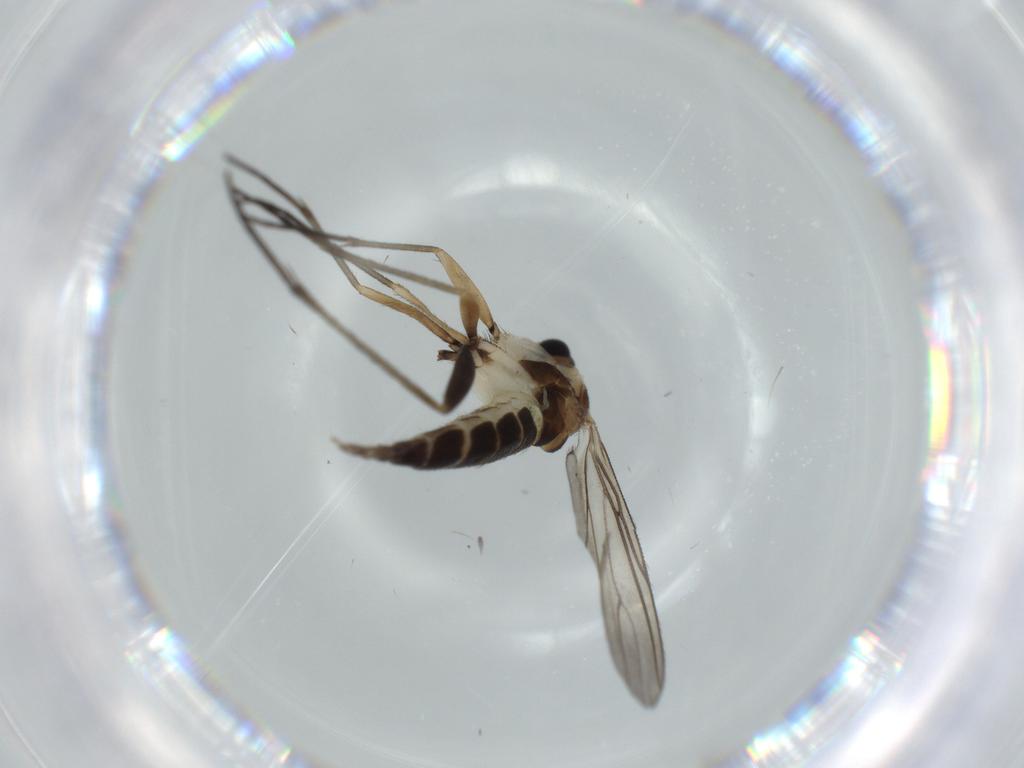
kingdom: Animalia
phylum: Arthropoda
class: Insecta
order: Diptera
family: Sciaridae
